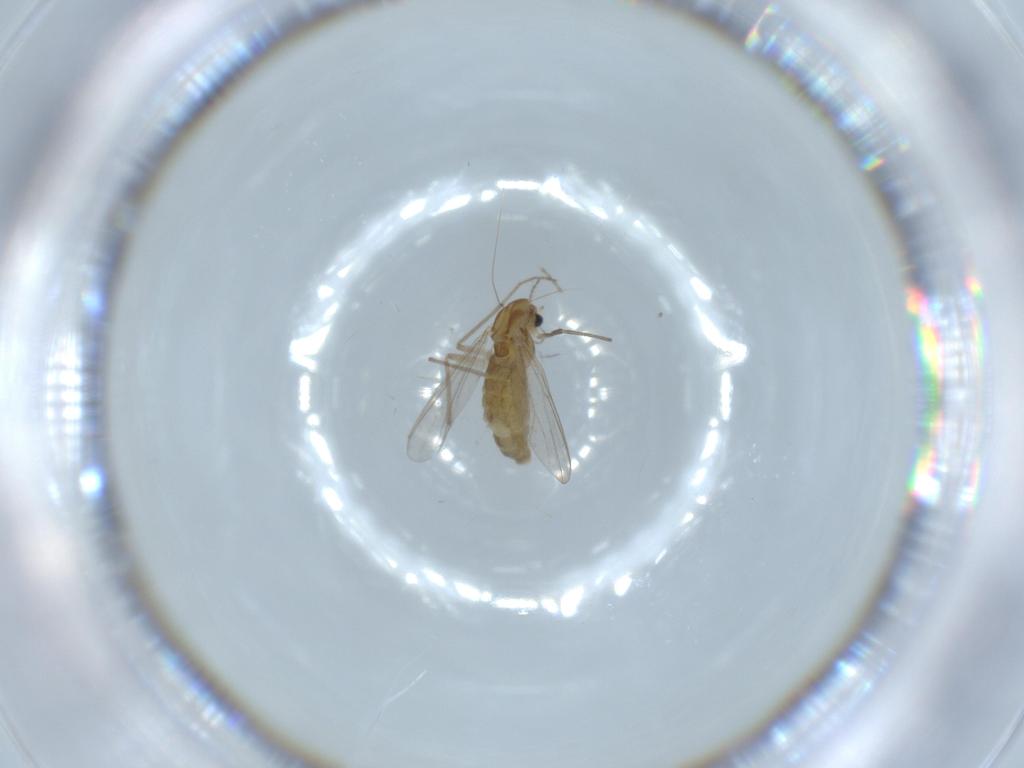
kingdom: Animalia
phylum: Arthropoda
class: Insecta
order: Diptera
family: Chironomidae
